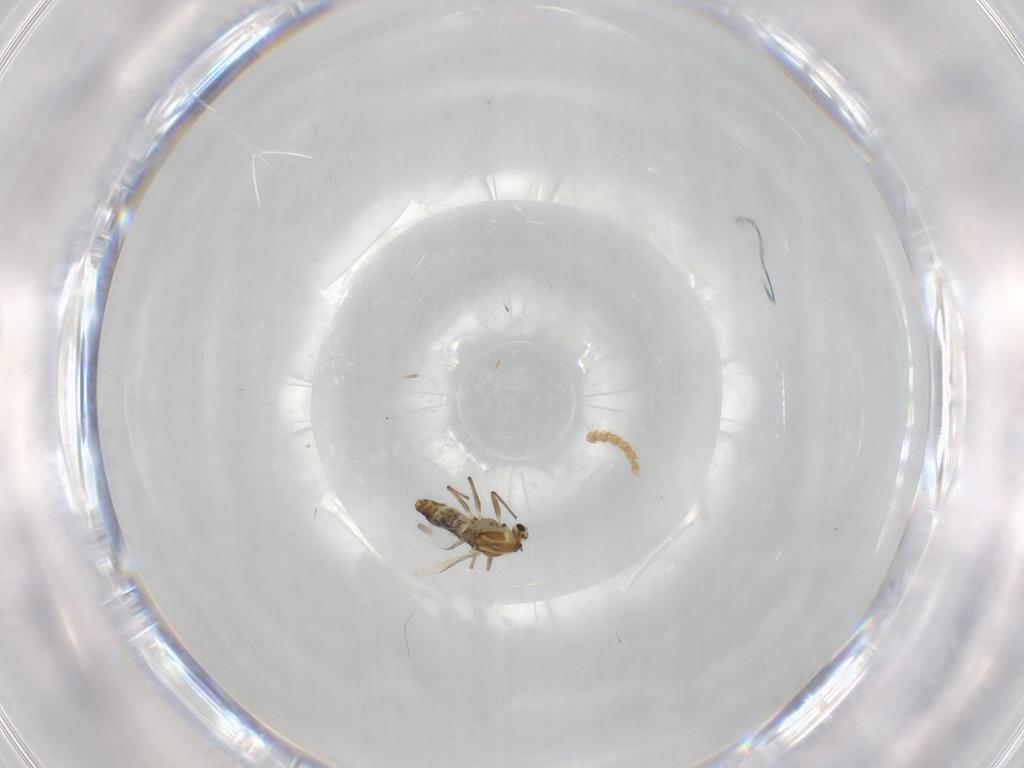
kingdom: Animalia
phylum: Arthropoda
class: Insecta
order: Diptera
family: Chironomidae
